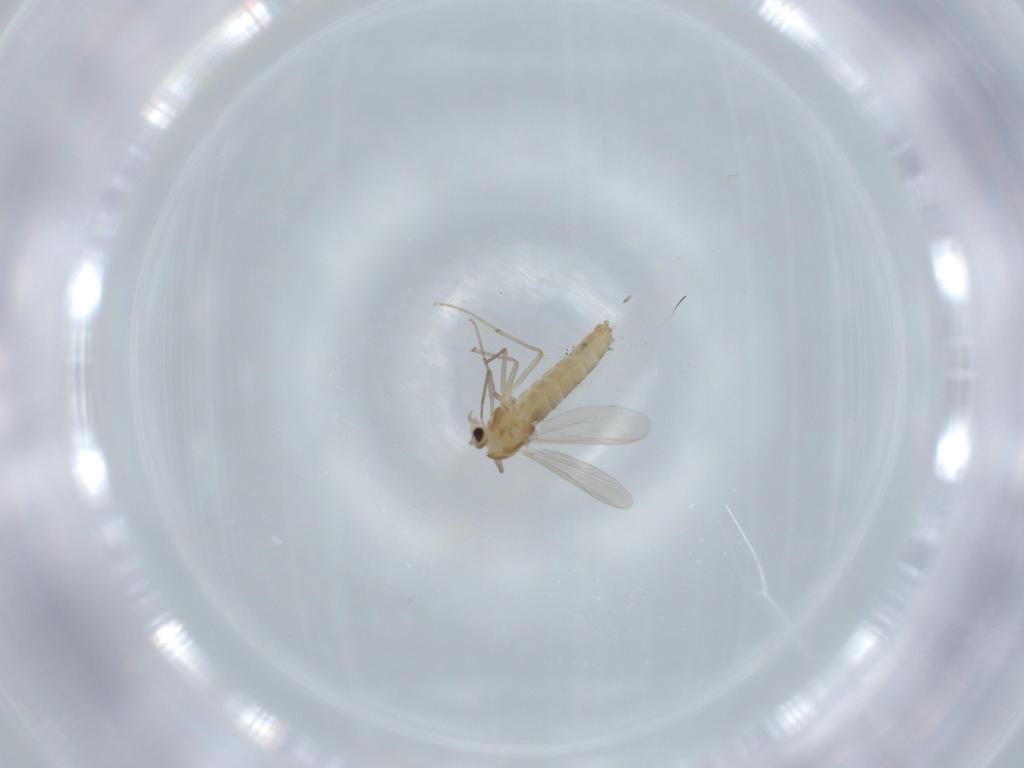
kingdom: Animalia
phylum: Arthropoda
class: Insecta
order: Diptera
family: Chironomidae
